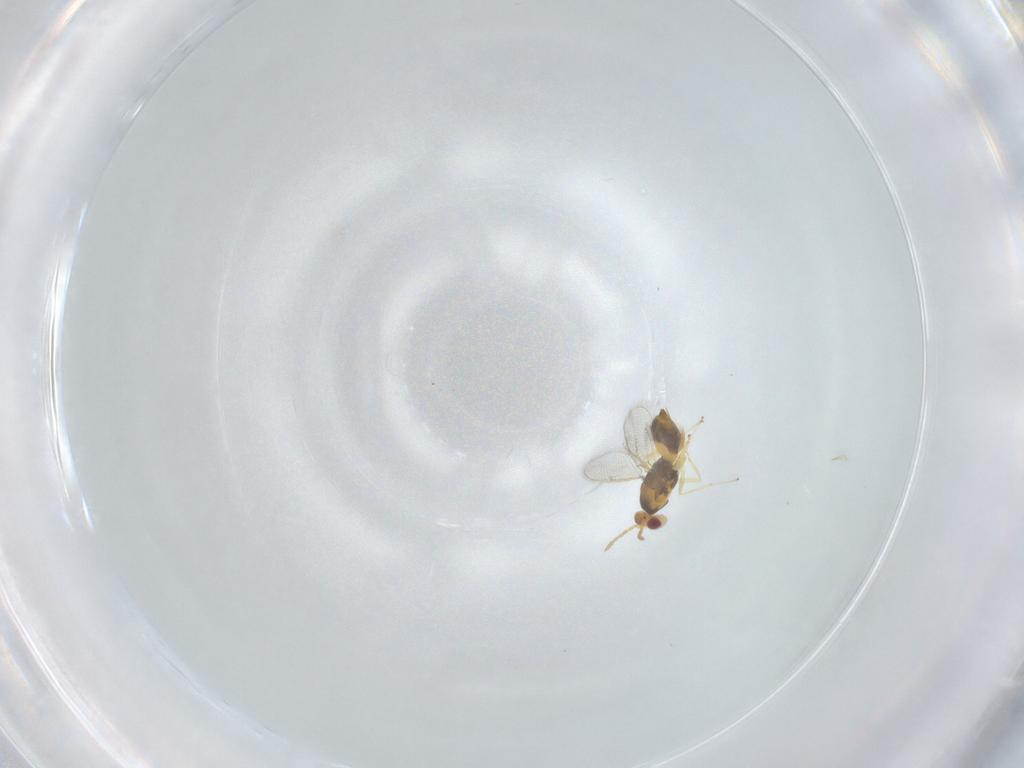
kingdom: Animalia
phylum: Arthropoda
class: Insecta
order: Hymenoptera
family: Eulophidae
